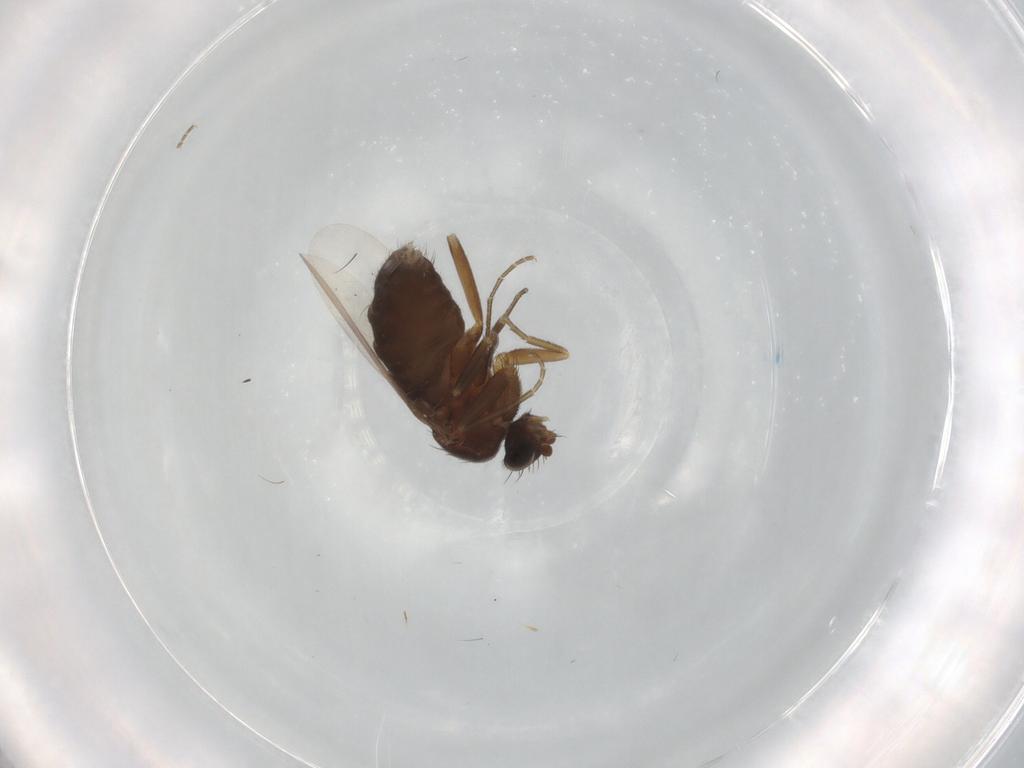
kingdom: Animalia
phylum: Arthropoda
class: Insecta
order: Diptera
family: Phoridae
